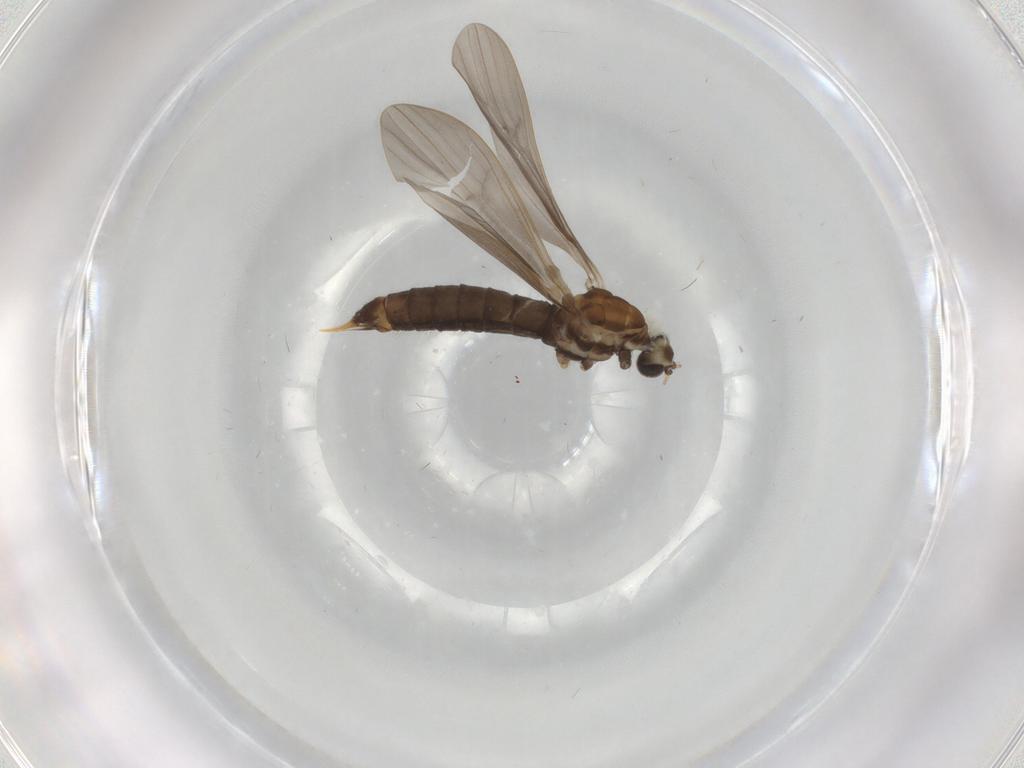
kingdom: Animalia
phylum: Arthropoda
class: Insecta
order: Diptera
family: Limoniidae
